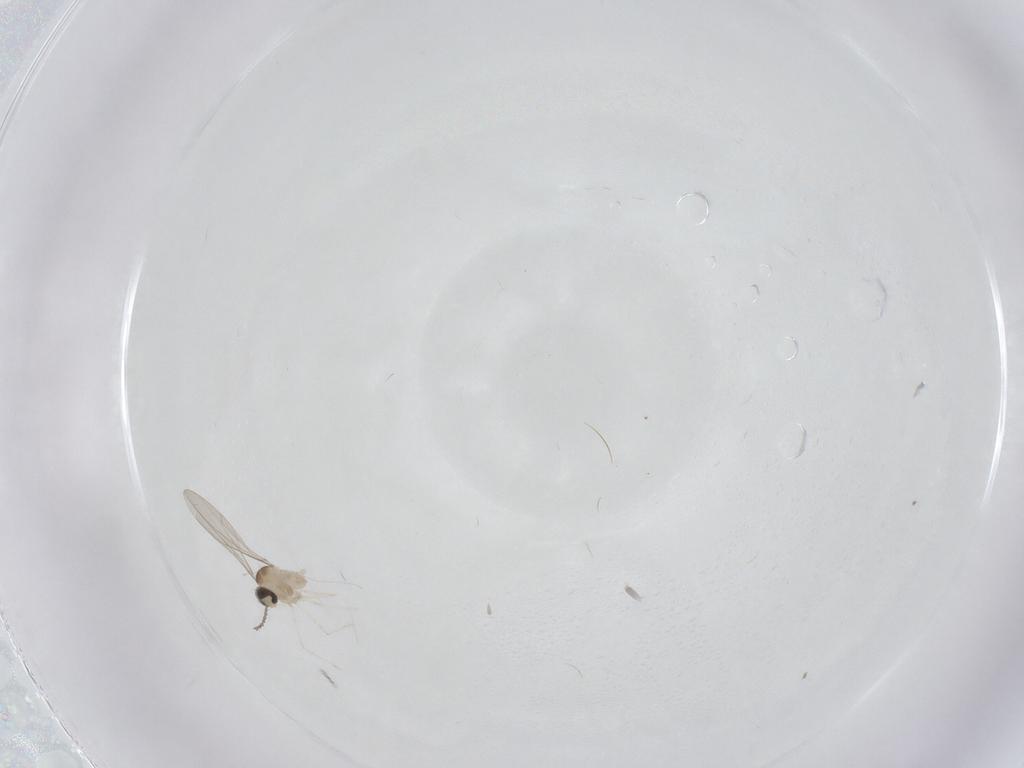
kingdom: Animalia
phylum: Arthropoda
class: Insecta
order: Diptera
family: Cecidomyiidae
